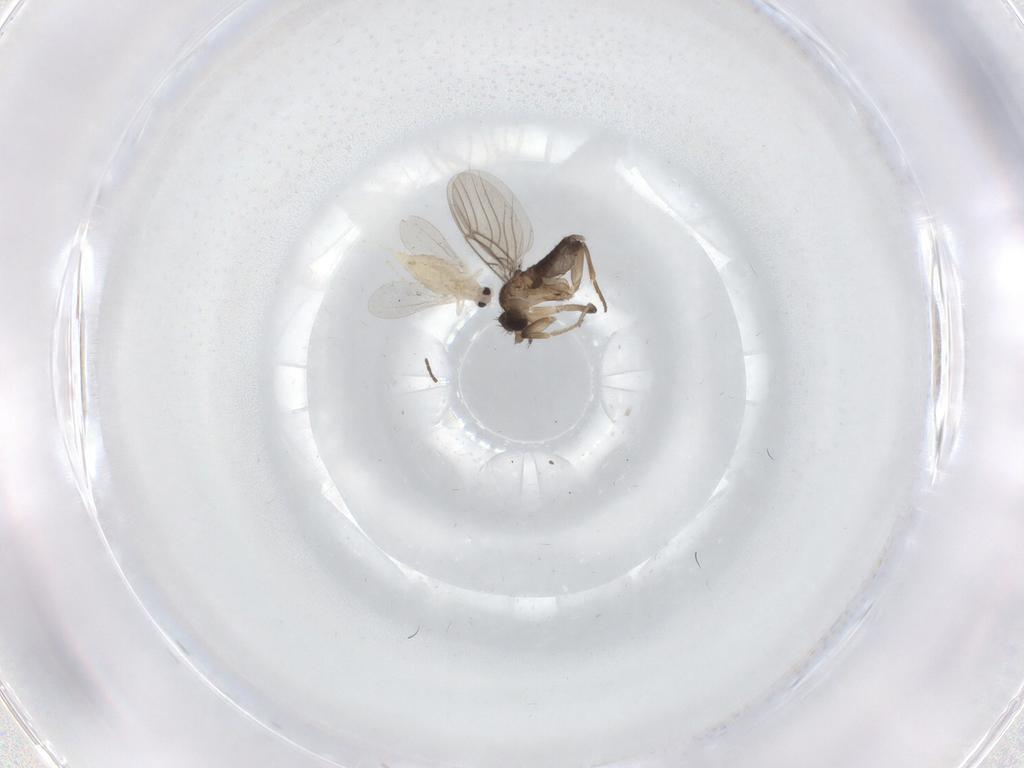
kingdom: Animalia
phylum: Arthropoda
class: Insecta
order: Diptera
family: Cecidomyiidae
